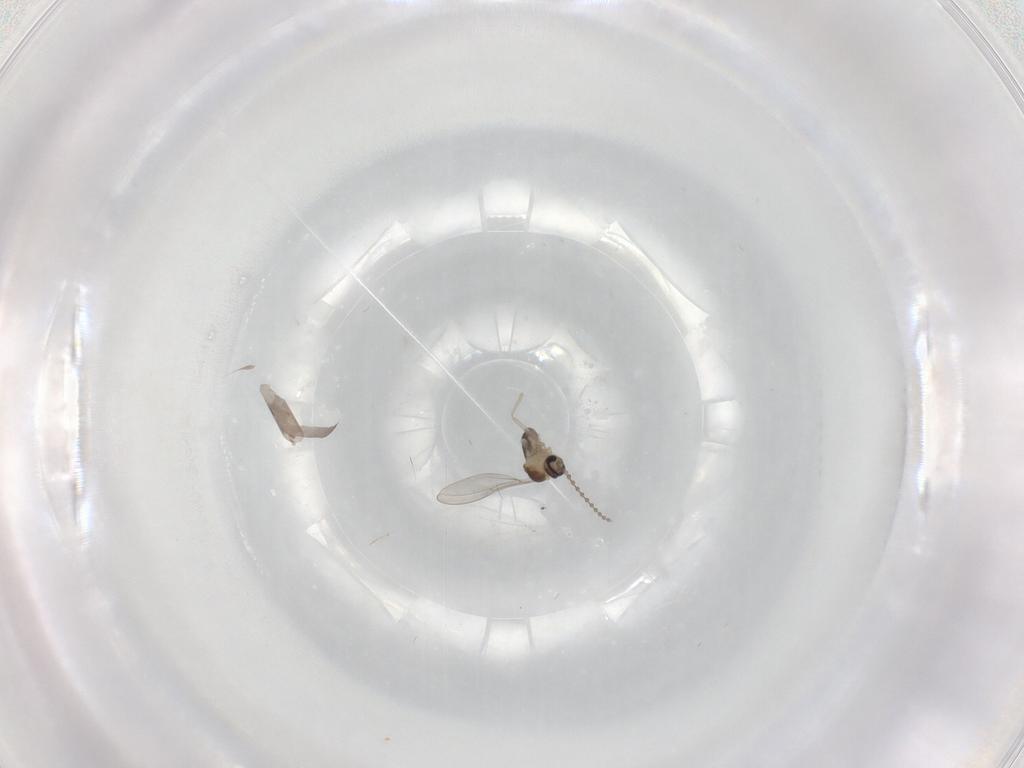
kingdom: Animalia
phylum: Arthropoda
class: Insecta
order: Diptera
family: Cecidomyiidae
